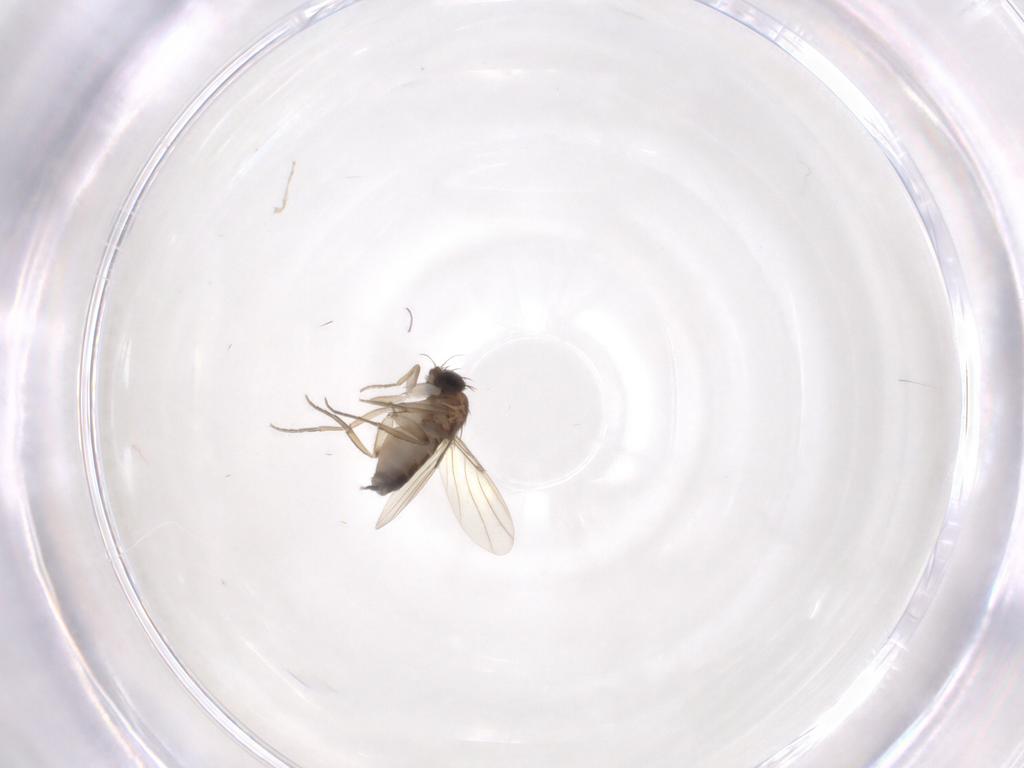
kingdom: Animalia
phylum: Arthropoda
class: Insecta
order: Diptera
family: Phoridae
